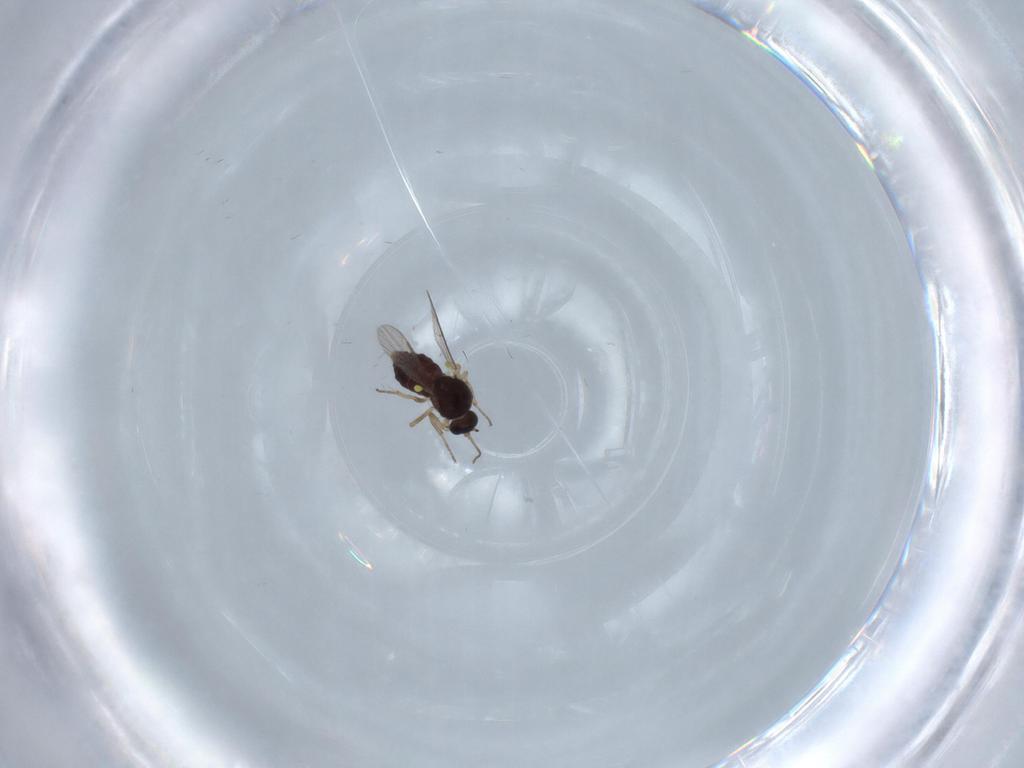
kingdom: Animalia
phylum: Arthropoda
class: Insecta
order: Diptera
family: Ceratopogonidae
